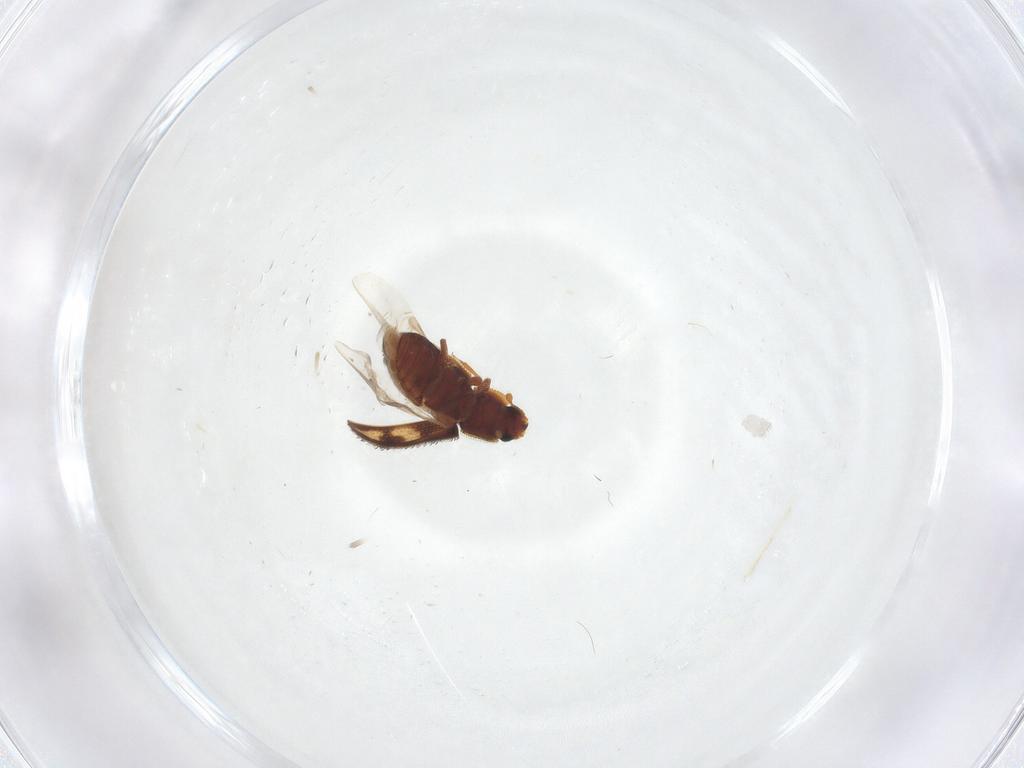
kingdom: Animalia
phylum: Arthropoda
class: Insecta
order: Coleoptera
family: Zopheridae
